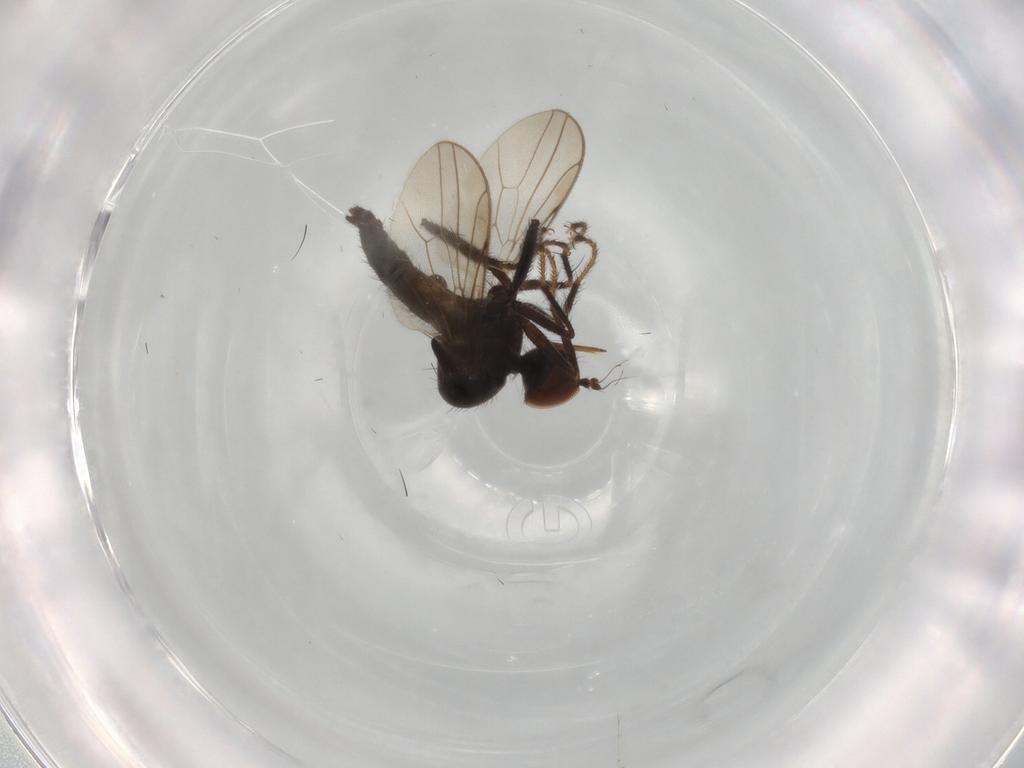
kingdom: Animalia
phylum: Arthropoda
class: Insecta
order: Diptera
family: Hybotidae
